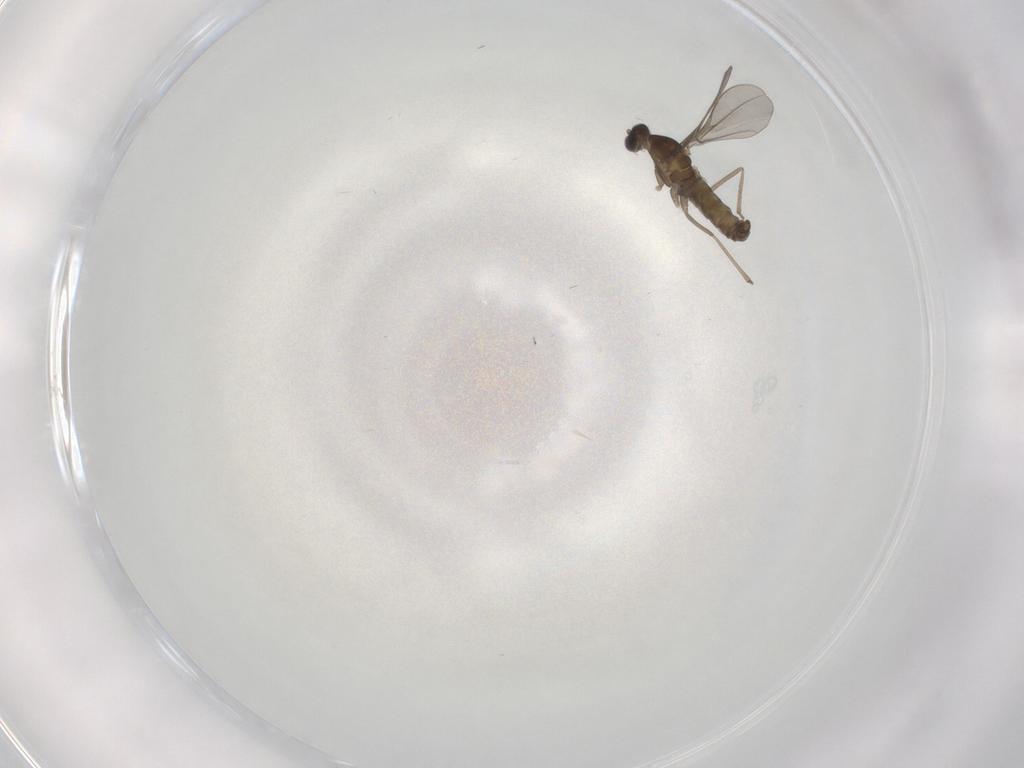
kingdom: Animalia
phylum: Arthropoda
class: Insecta
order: Diptera
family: Cecidomyiidae
